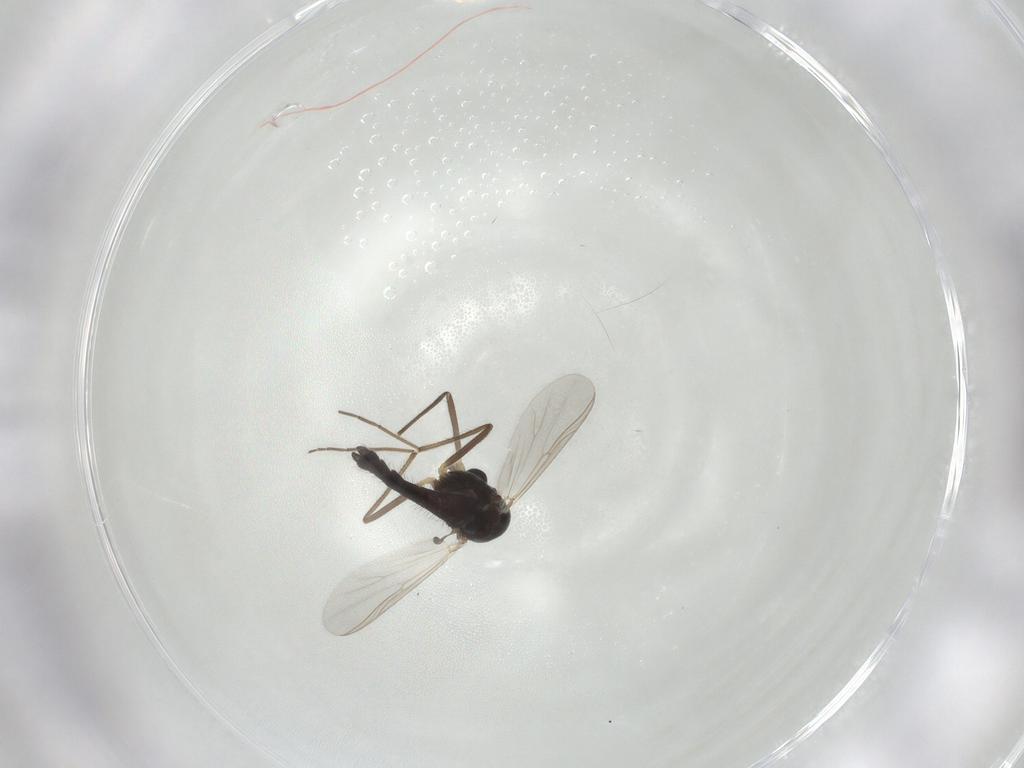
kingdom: Animalia
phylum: Arthropoda
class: Insecta
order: Diptera
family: Chironomidae
